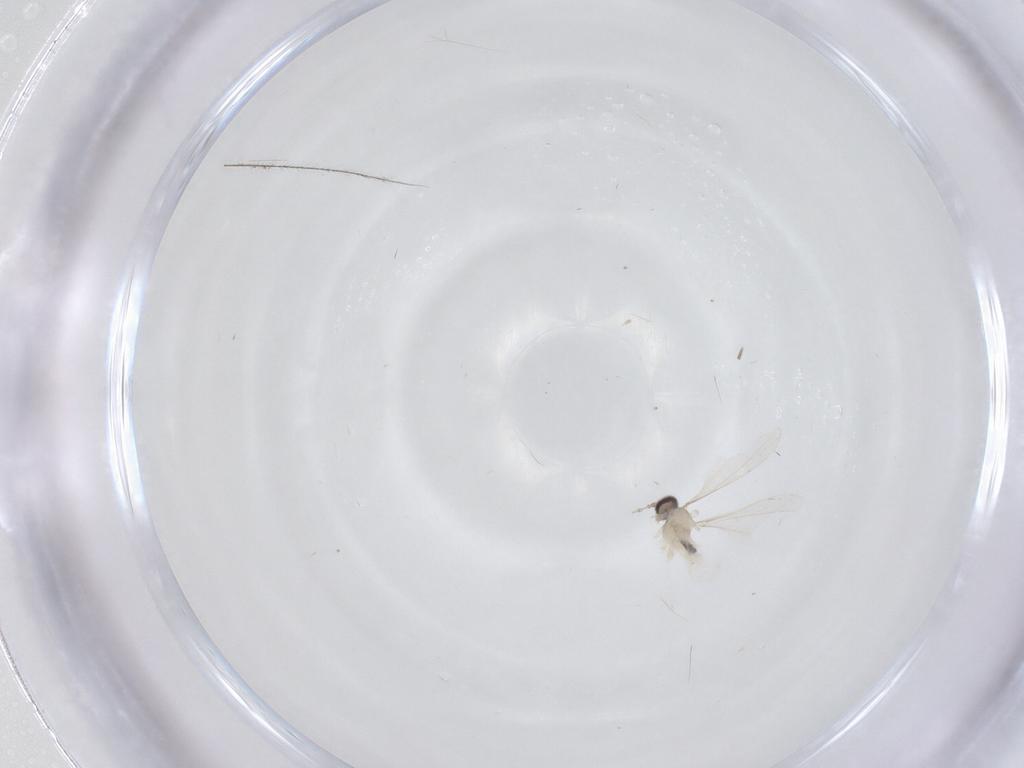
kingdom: Animalia
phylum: Arthropoda
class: Insecta
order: Diptera
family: Cecidomyiidae
